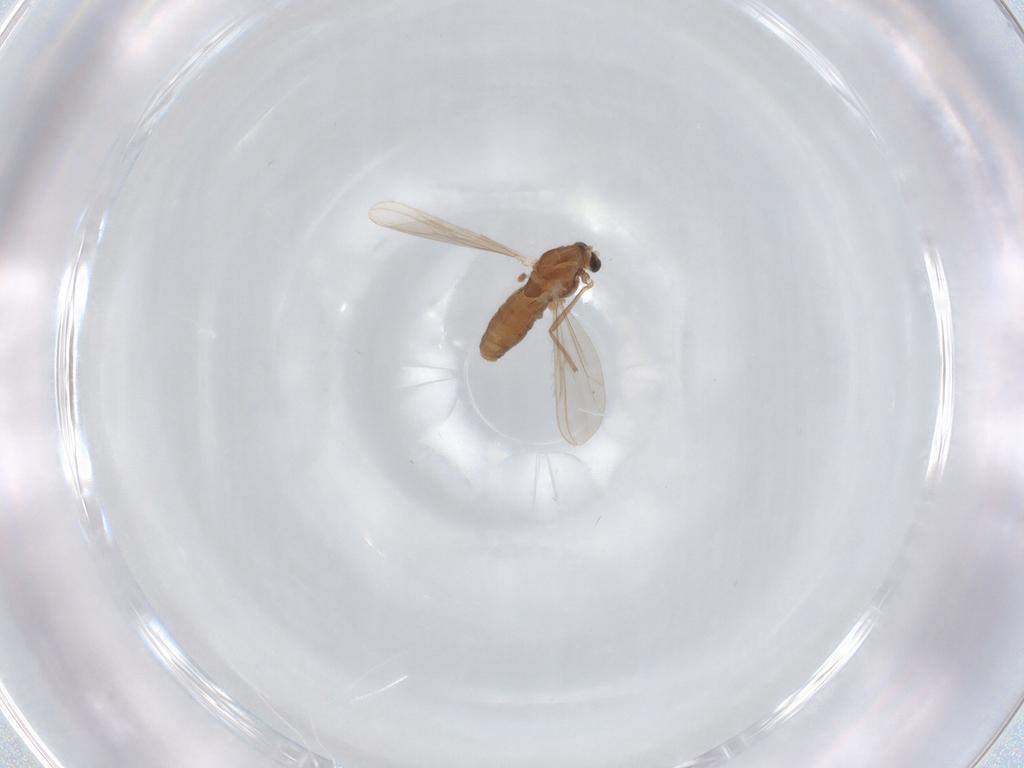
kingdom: Animalia
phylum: Arthropoda
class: Insecta
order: Diptera
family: Chironomidae
